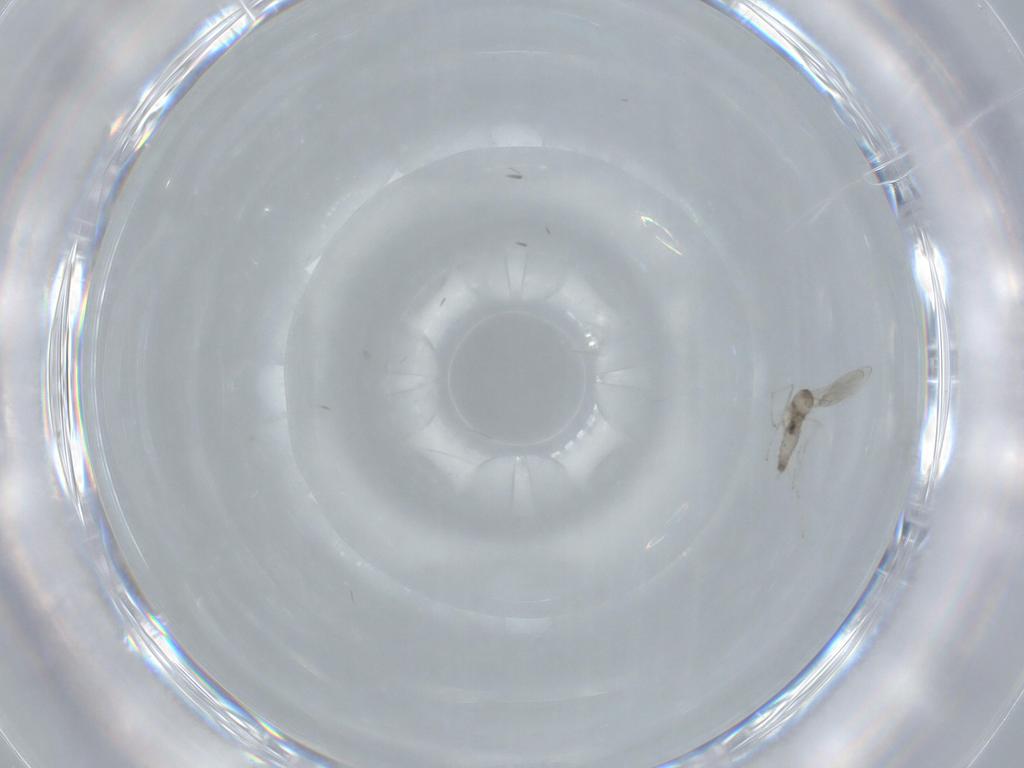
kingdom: Animalia
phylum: Arthropoda
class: Insecta
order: Diptera
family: Cecidomyiidae
